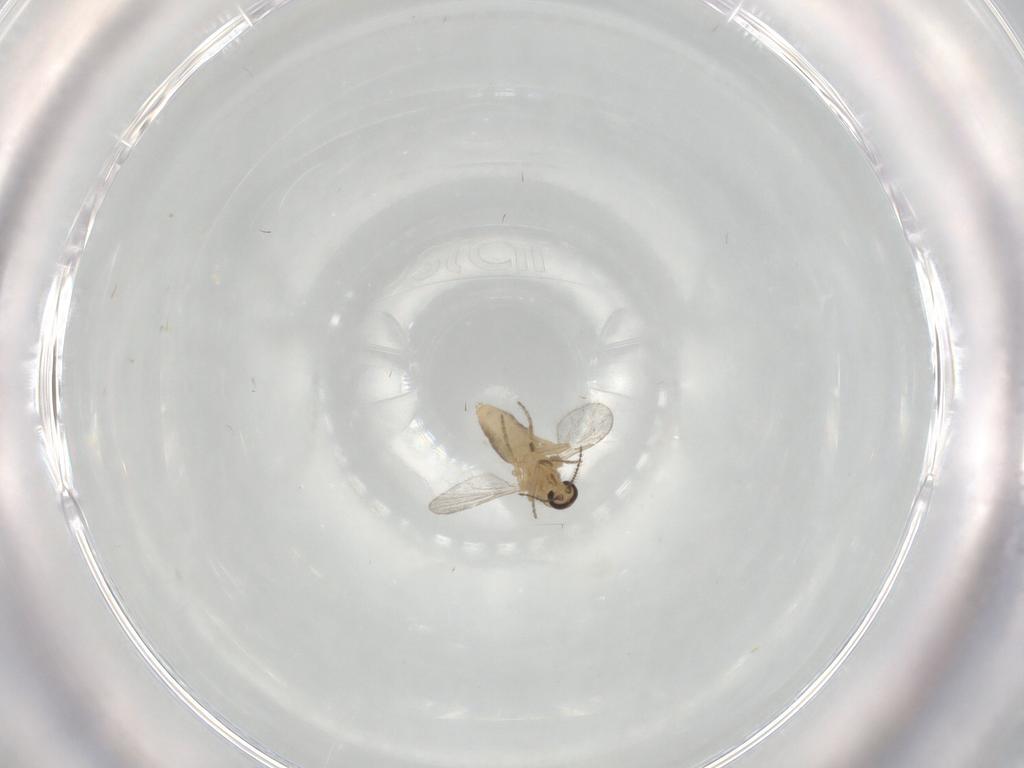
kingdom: Animalia
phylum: Arthropoda
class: Insecta
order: Diptera
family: Ceratopogonidae
